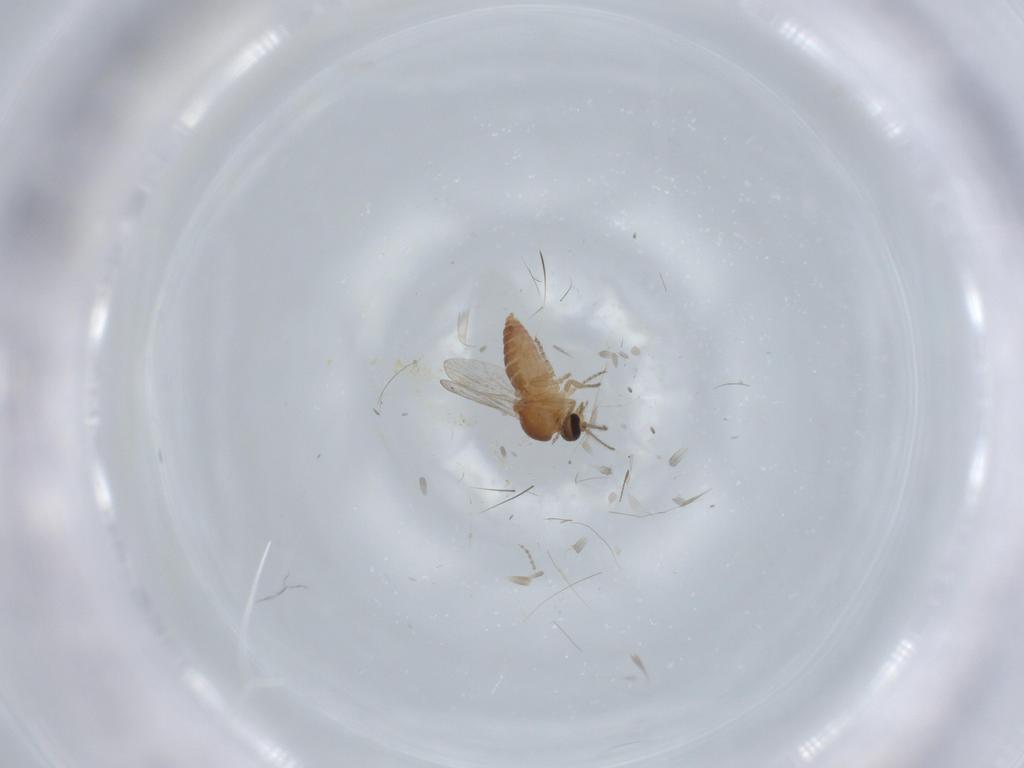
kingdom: Animalia
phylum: Arthropoda
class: Insecta
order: Diptera
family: Ceratopogonidae
